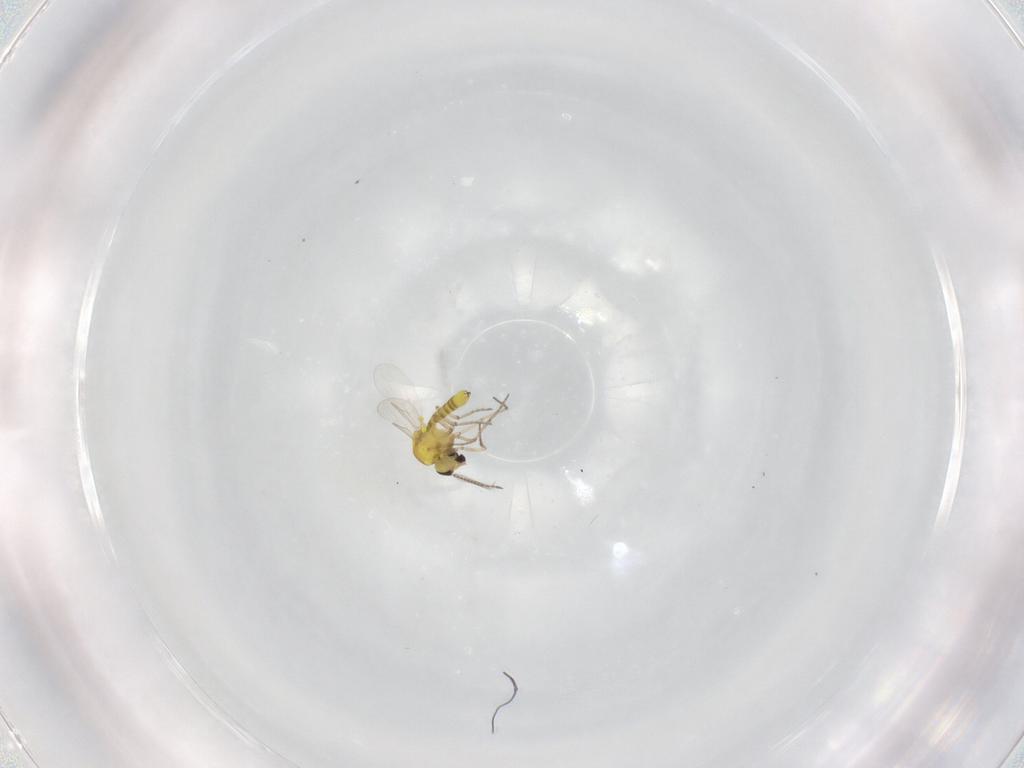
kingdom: Animalia
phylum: Arthropoda
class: Insecta
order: Diptera
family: Ceratopogonidae
